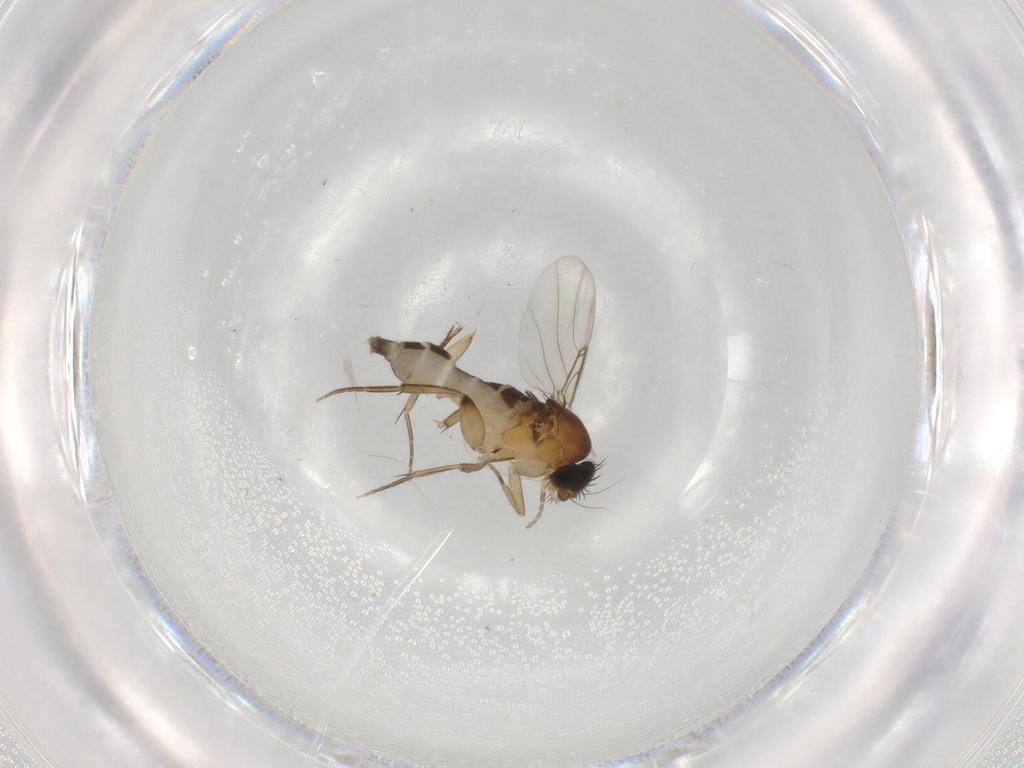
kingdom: Animalia
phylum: Arthropoda
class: Insecta
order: Diptera
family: Phoridae
